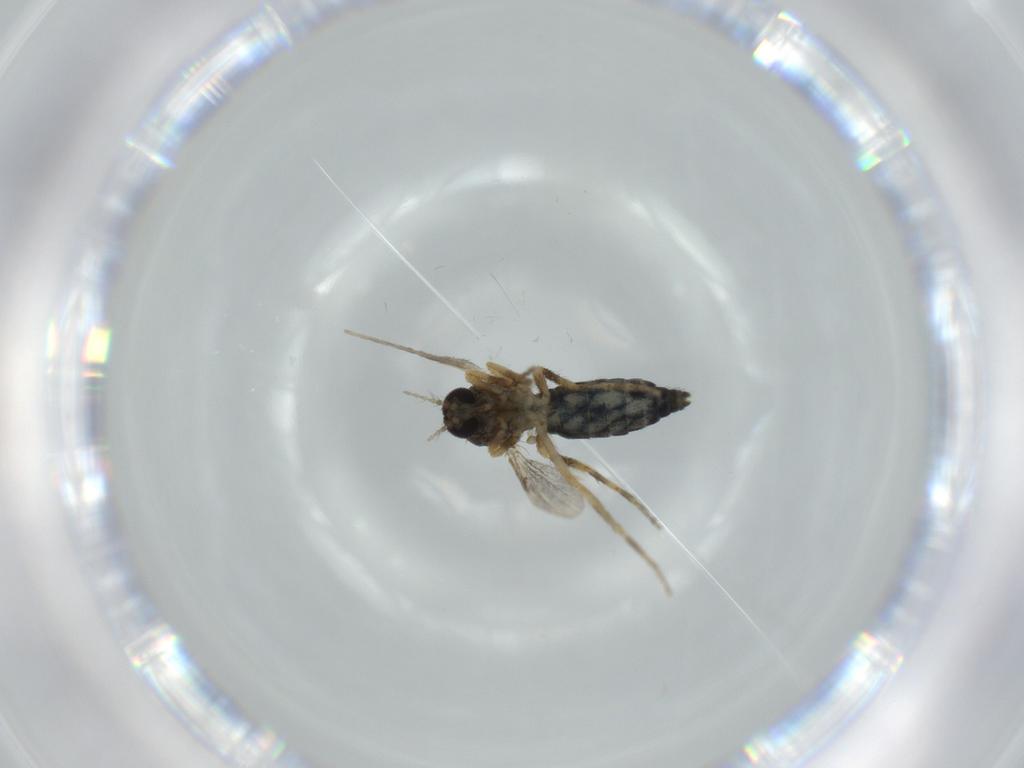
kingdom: Animalia
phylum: Arthropoda
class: Insecta
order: Diptera
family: Ceratopogonidae
